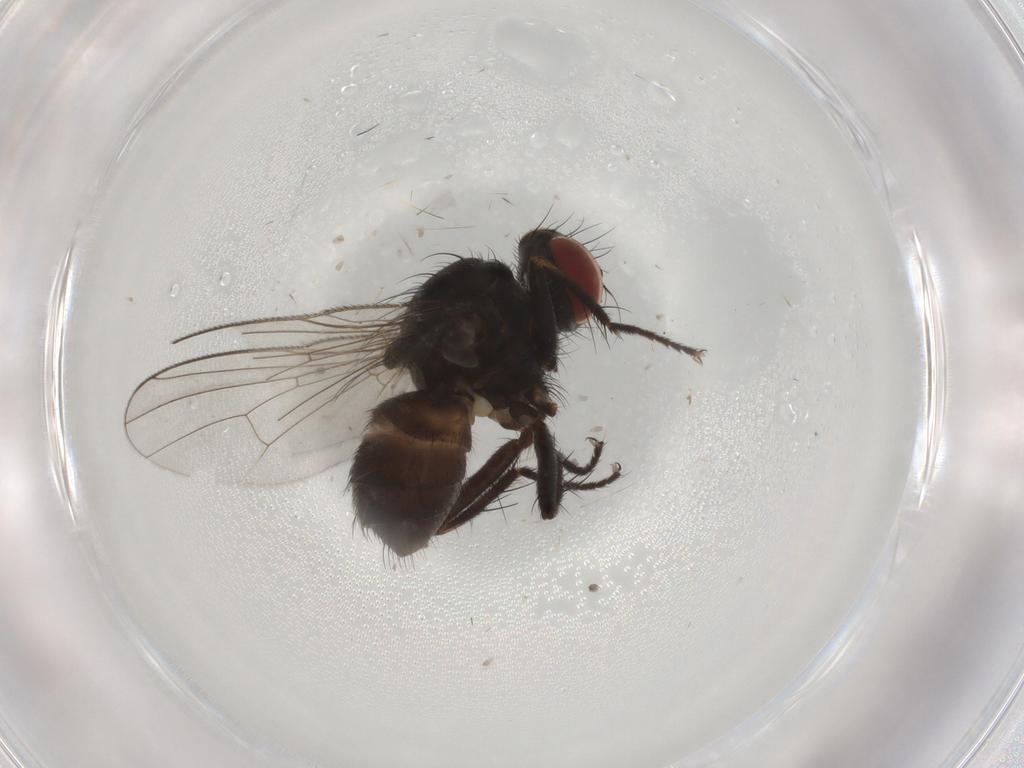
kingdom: Animalia
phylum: Arthropoda
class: Insecta
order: Diptera
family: Muscidae
